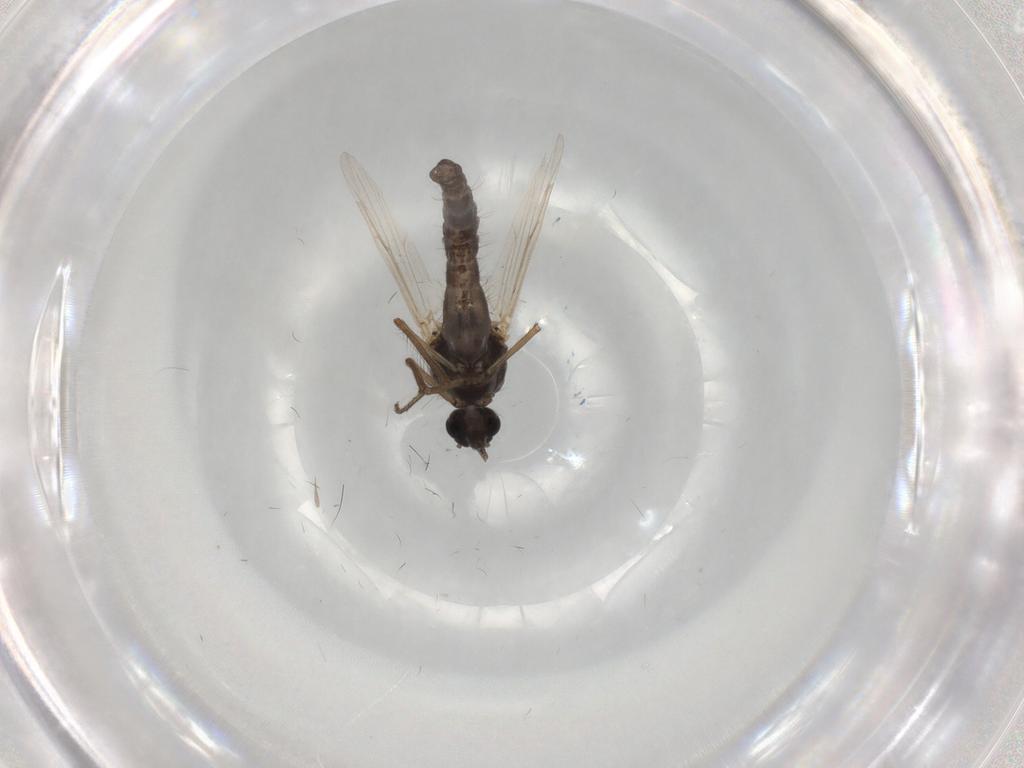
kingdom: Animalia
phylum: Arthropoda
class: Insecta
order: Diptera
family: Ceratopogonidae
